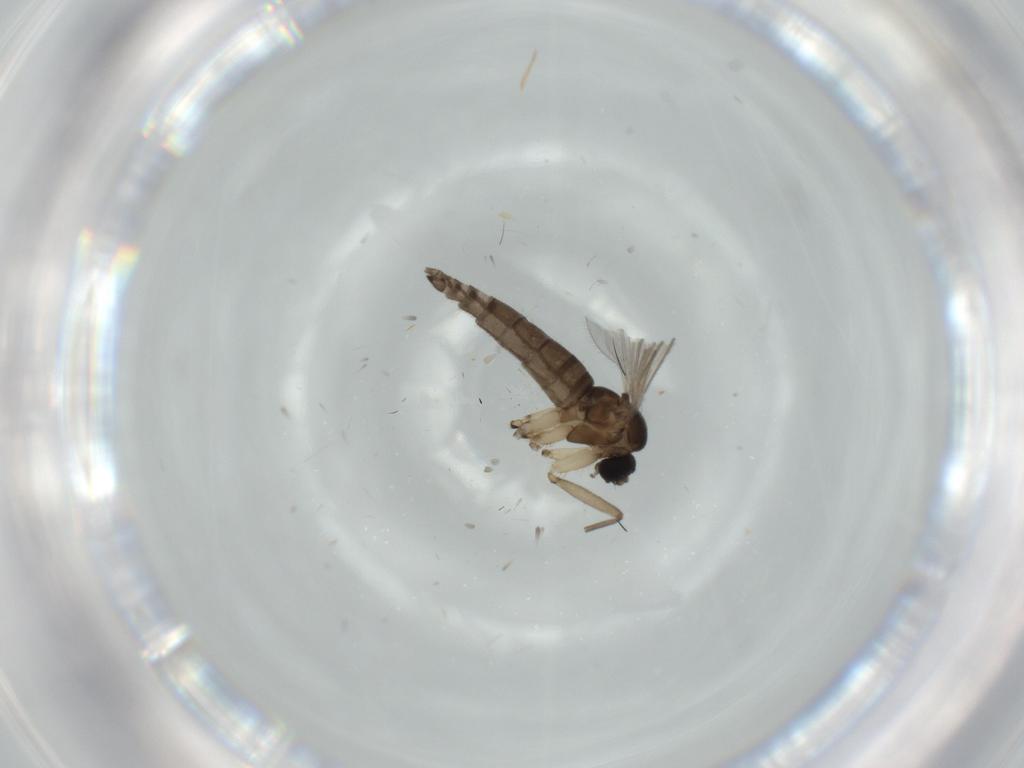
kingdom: Animalia
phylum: Arthropoda
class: Insecta
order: Diptera
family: Sciaridae
